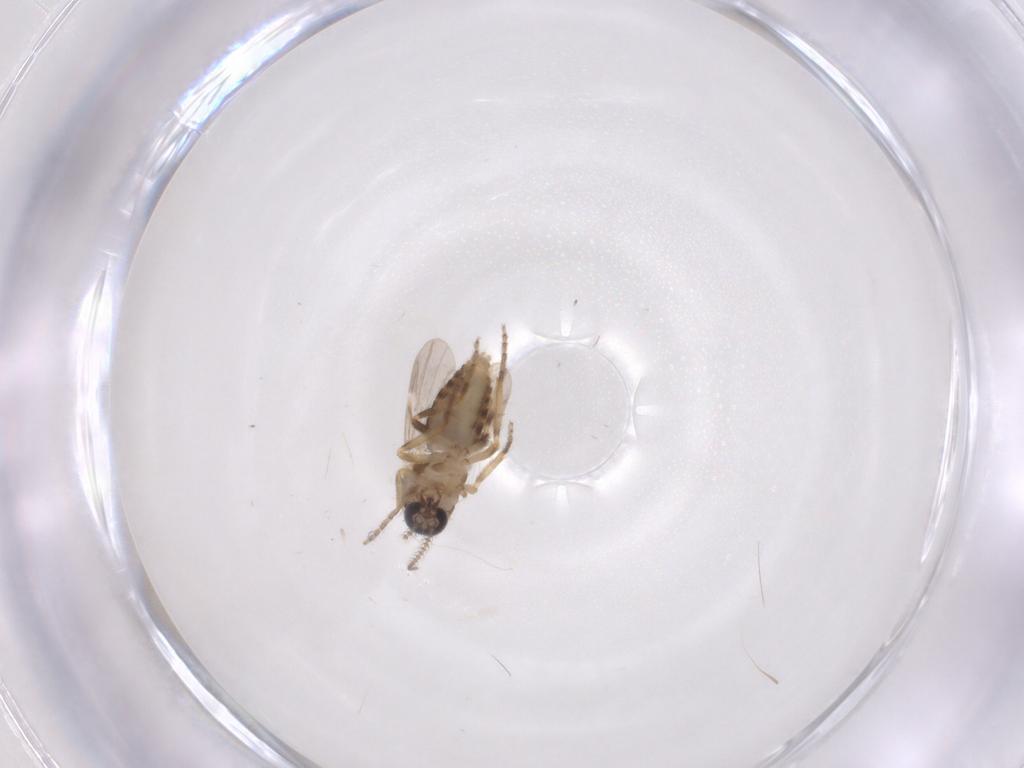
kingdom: Animalia
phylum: Arthropoda
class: Insecta
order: Diptera
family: Ceratopogonidae
